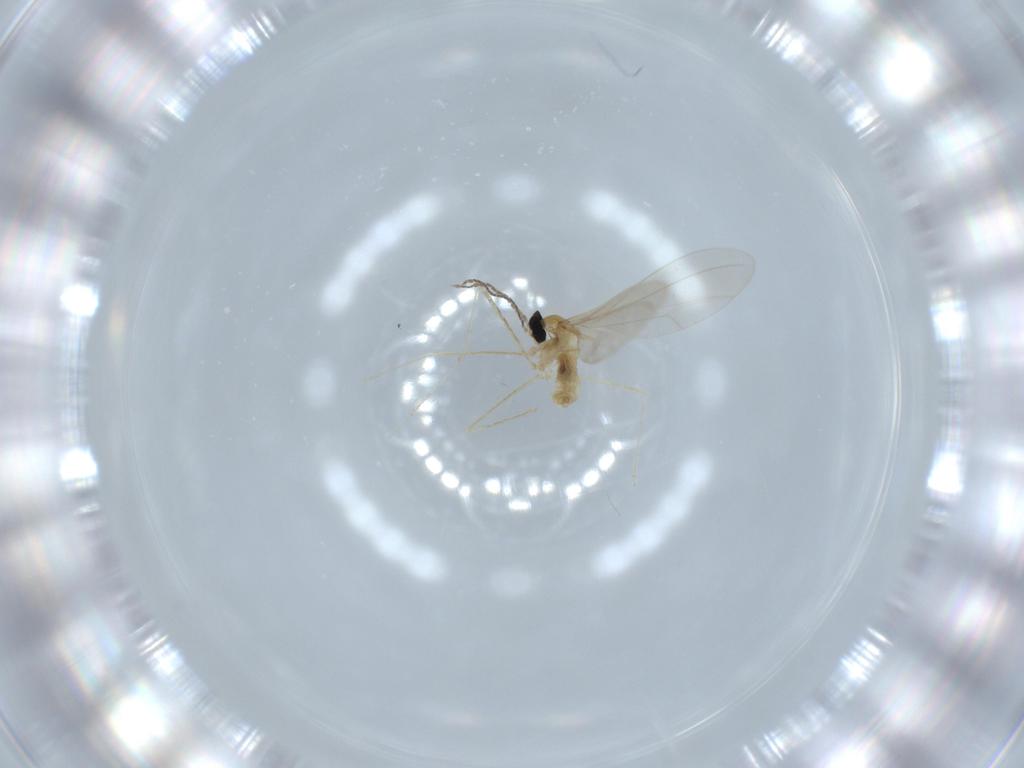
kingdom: Animalia
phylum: Arthropoda
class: Insecta
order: Diptera
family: Cecidomyiidae
